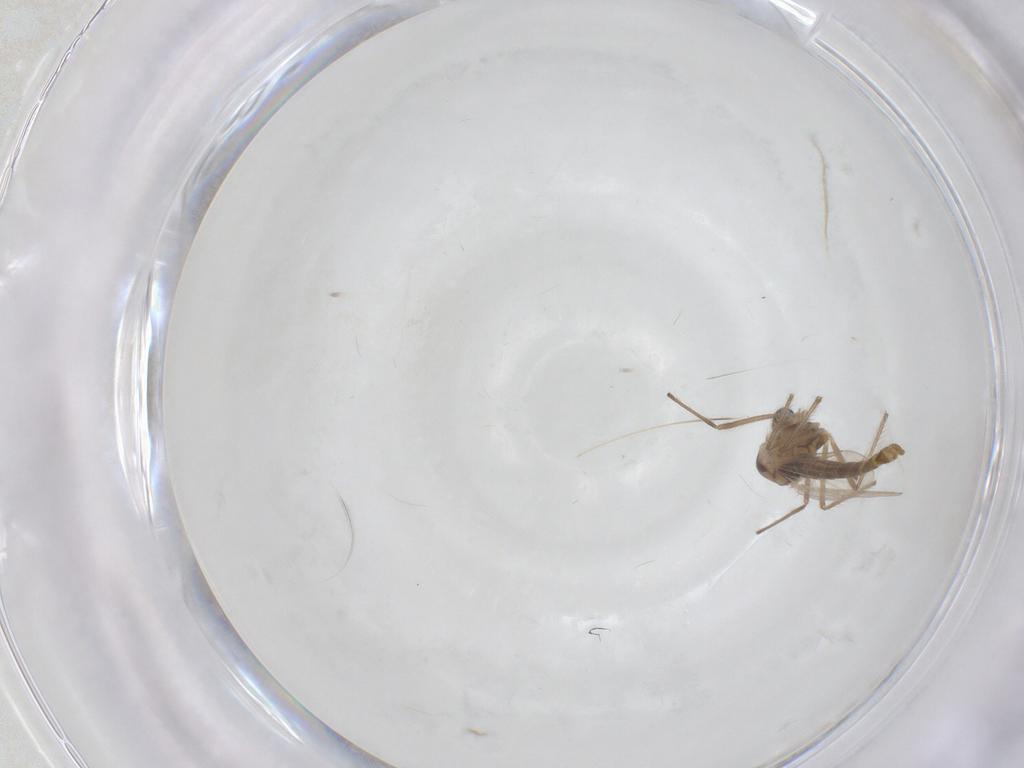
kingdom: Animalia
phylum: Arthropoda
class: Insecta
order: Diptera
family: Chironomidae
